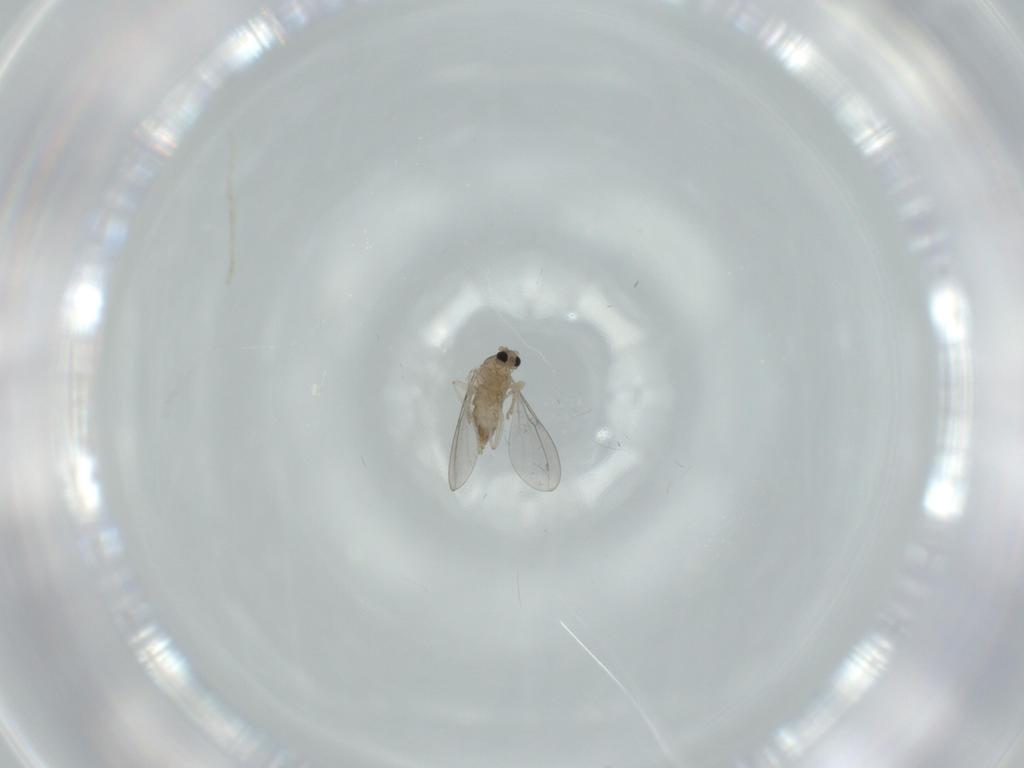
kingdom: Animalia
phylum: Arthropoda
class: Insecta
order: Diptera
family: Cecidomyiidae
